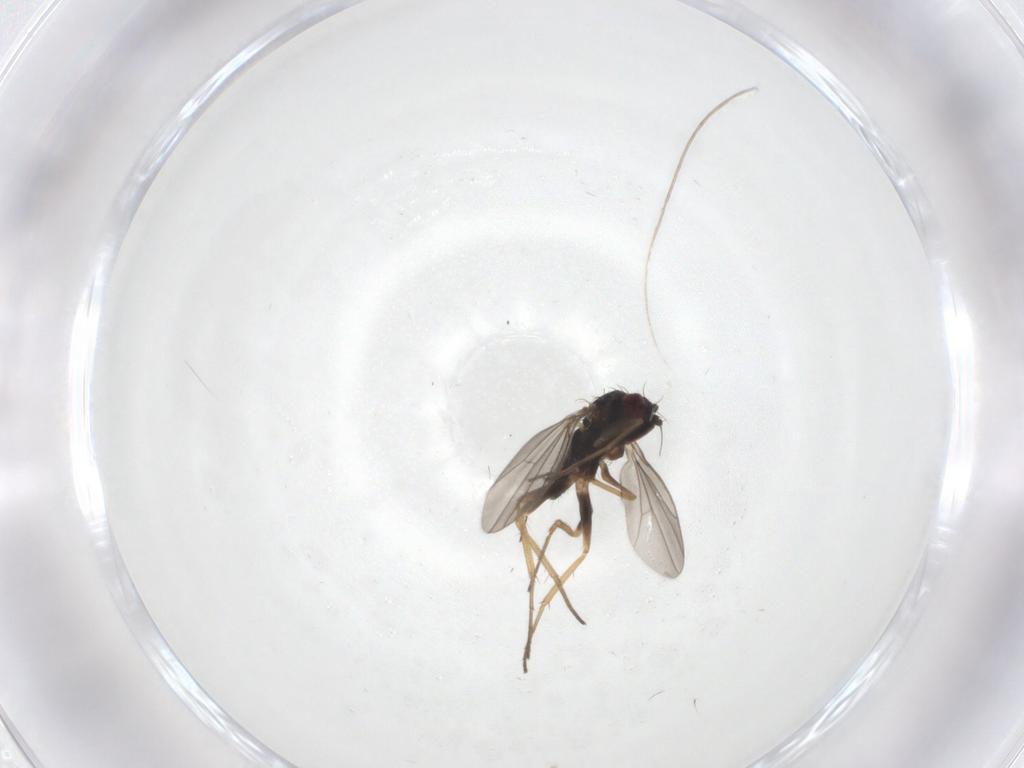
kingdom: Animalia
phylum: Arthropoda
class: Insecta
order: Diptera
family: Dolichopodidae
